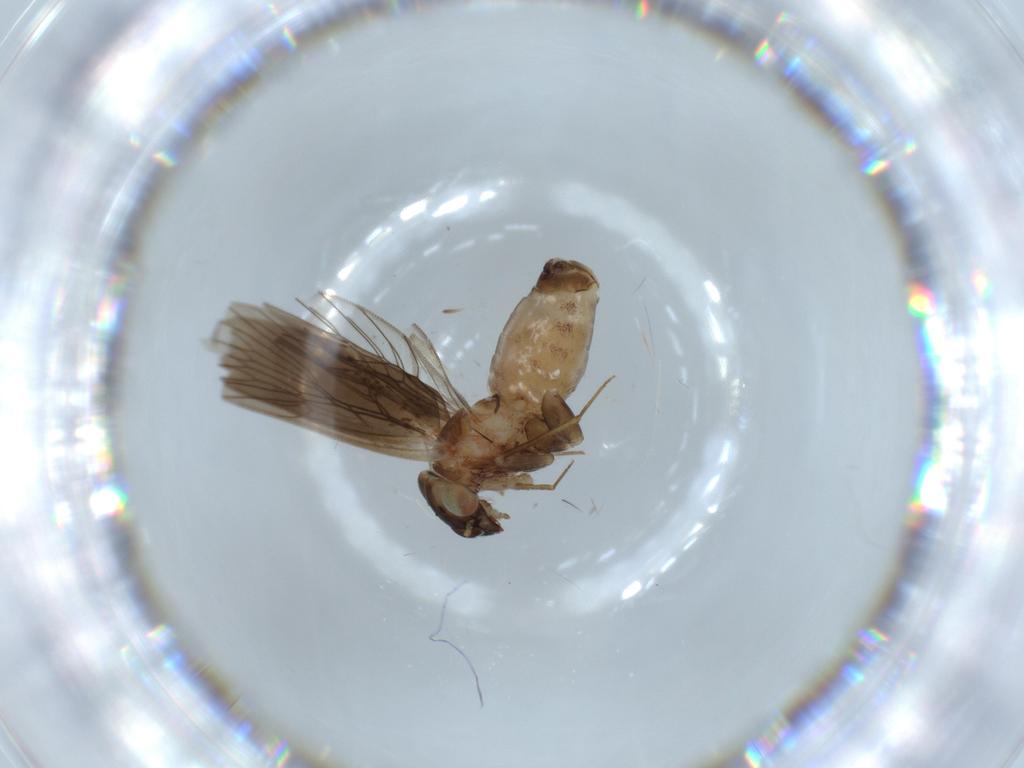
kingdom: Animalia
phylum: Arthropoda
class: Insecta
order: Psocodea
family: Lepidopsocidae
